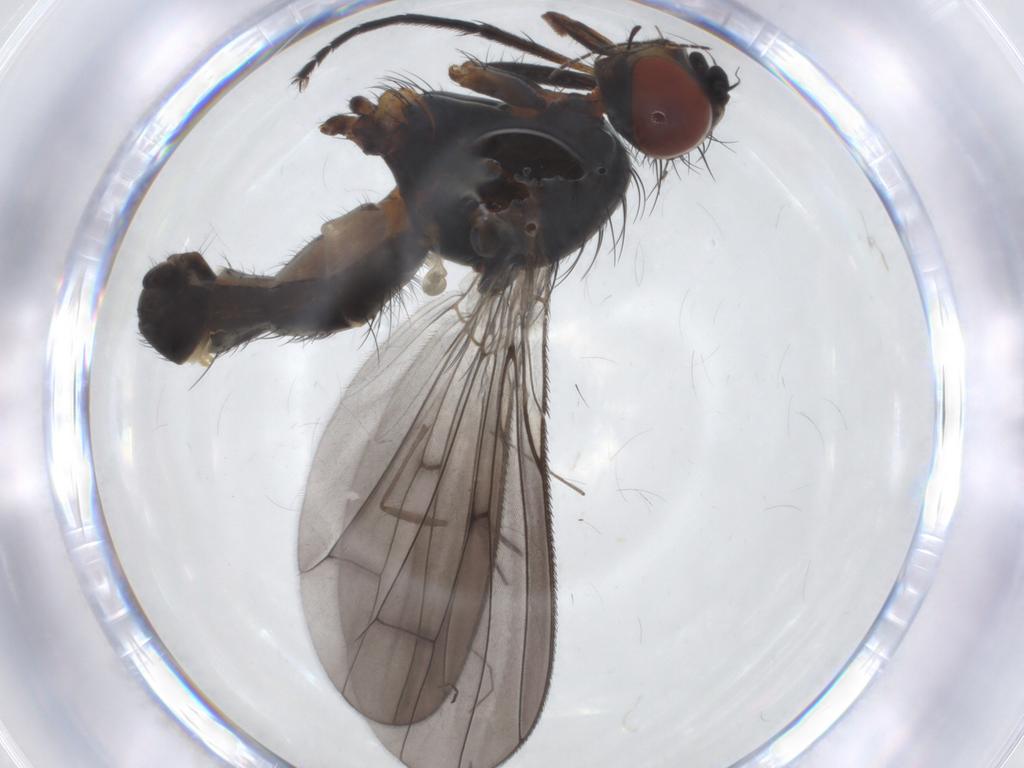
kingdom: Animalia
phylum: Arthropoda
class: Insecta
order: Diptera
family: Anthomyiidae
